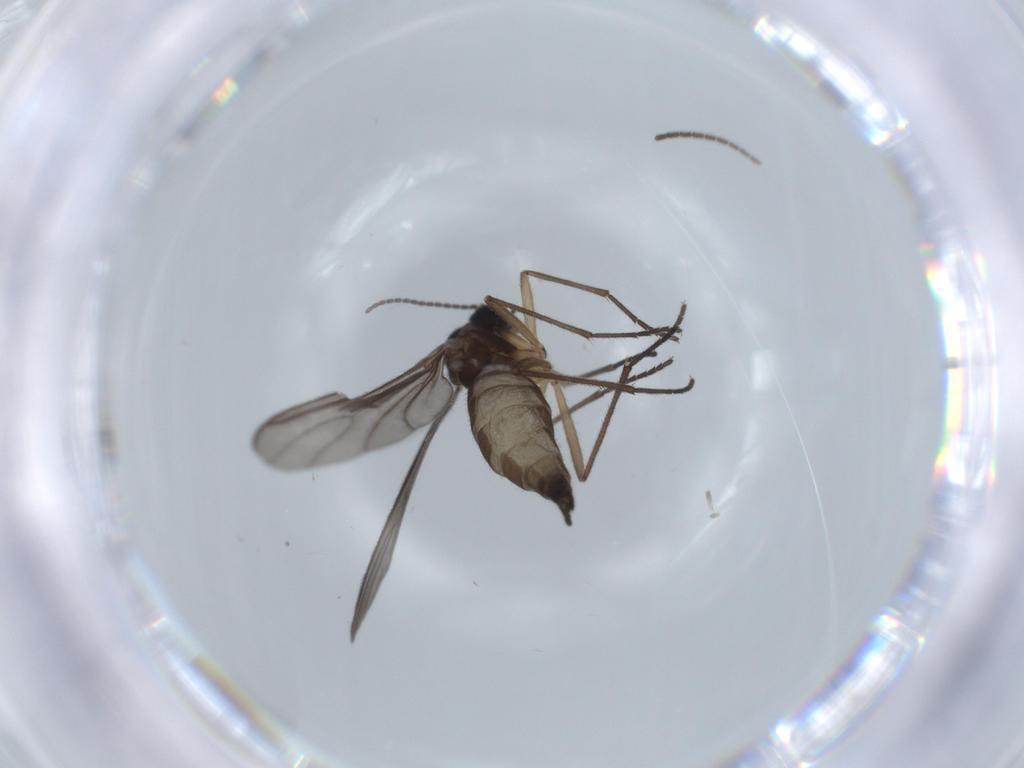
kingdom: Animalia
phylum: Arthropoda
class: Insecta
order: Diptera
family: Sciaridae
